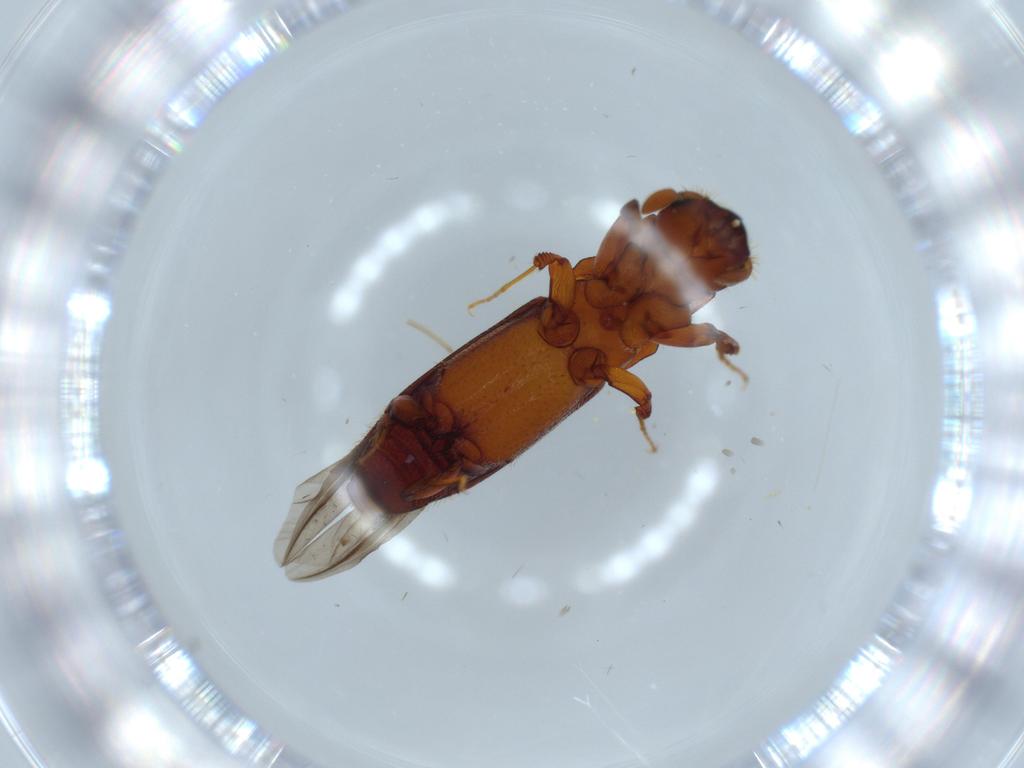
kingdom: Animalia
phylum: Arthropoda
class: Insecta
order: Coleoptera
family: Curculionidae
